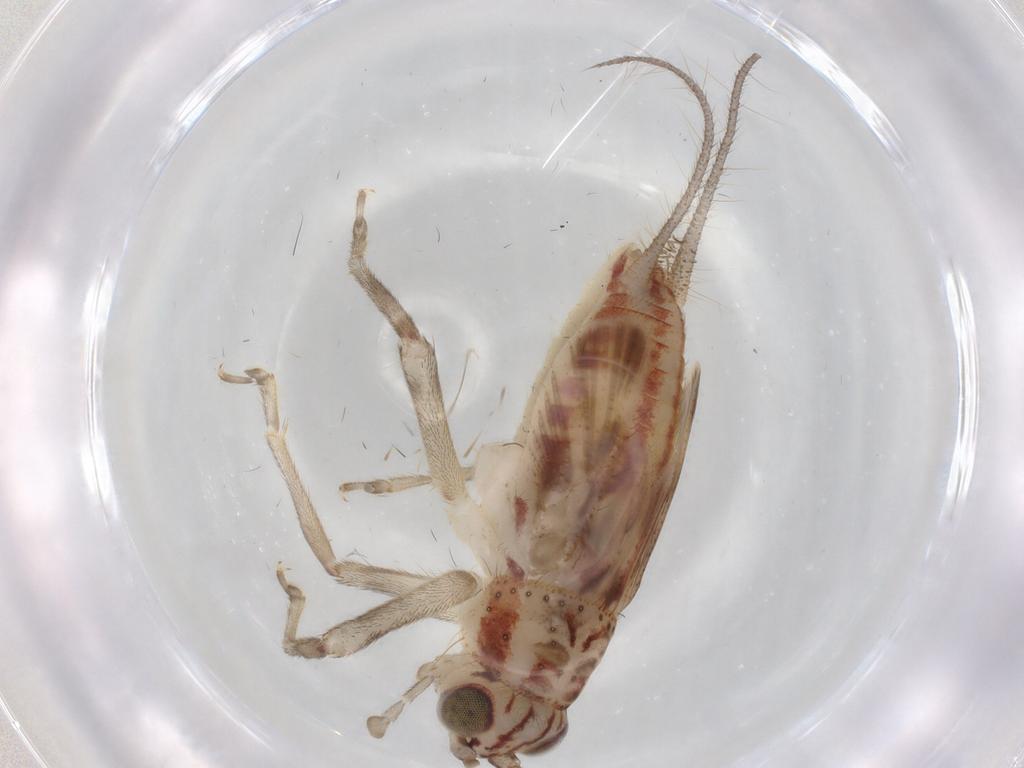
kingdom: Animalia
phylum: Arthropoda
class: Insecta
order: Orthoptera
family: Trigonidiidae
